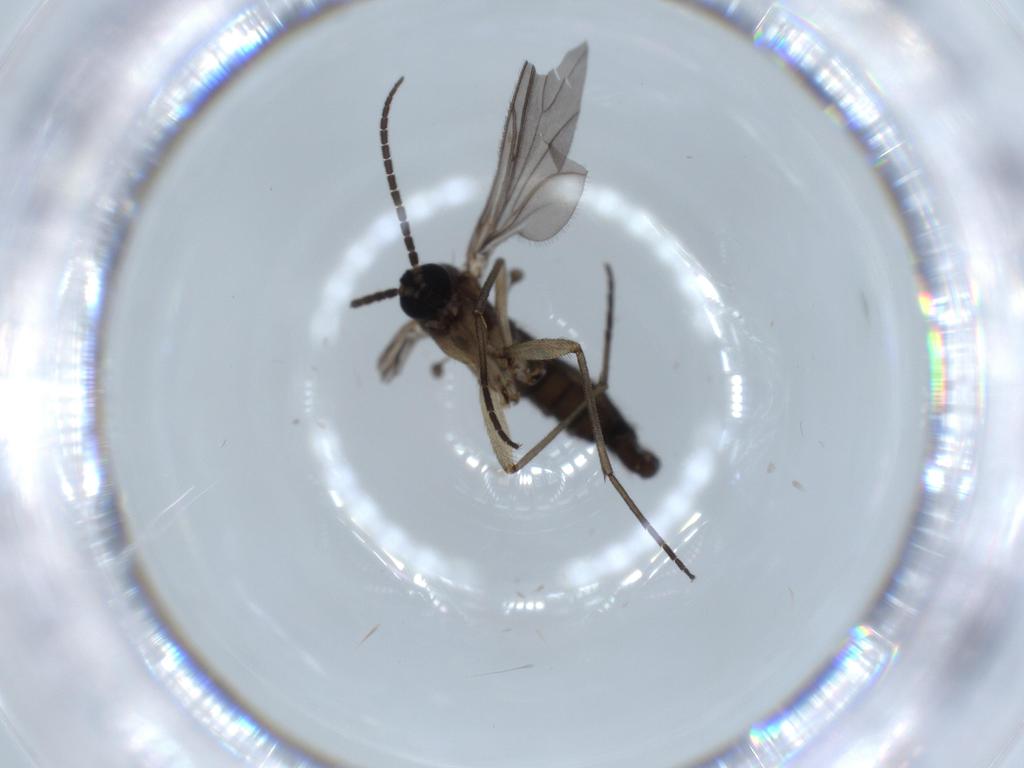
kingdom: Animalia
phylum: Arthropoda
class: Insecta
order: Diptera
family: Sciaridae
